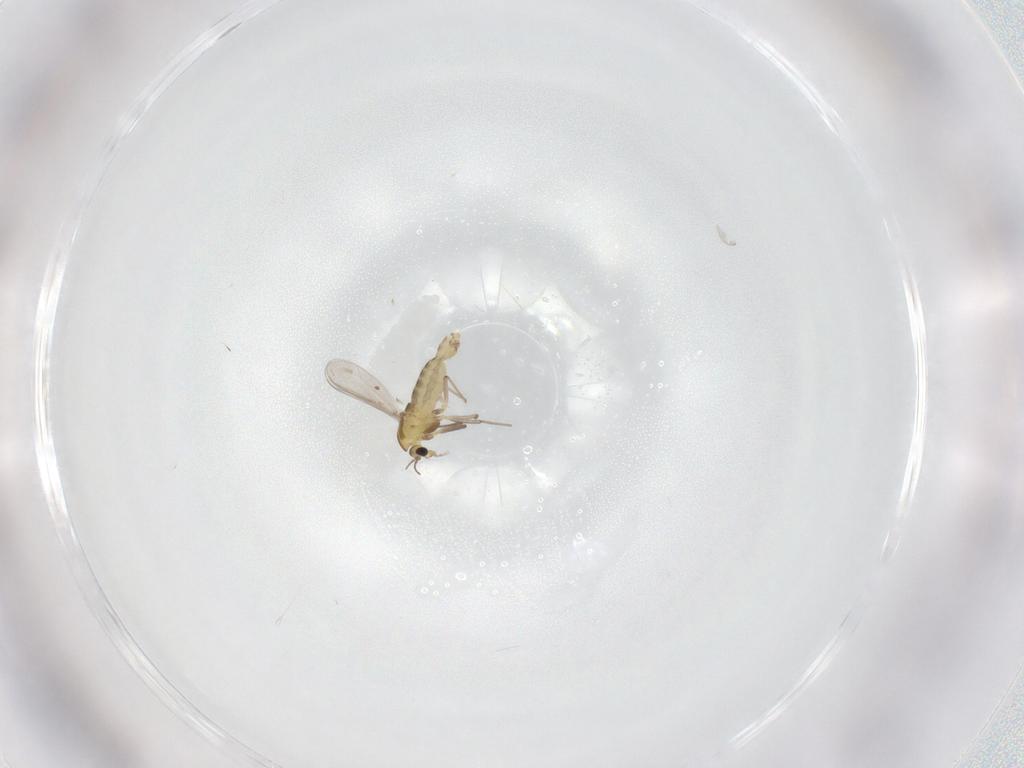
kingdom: Animalia
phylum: Arthropoda
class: Insecta
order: Diptera
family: Chironomidae
